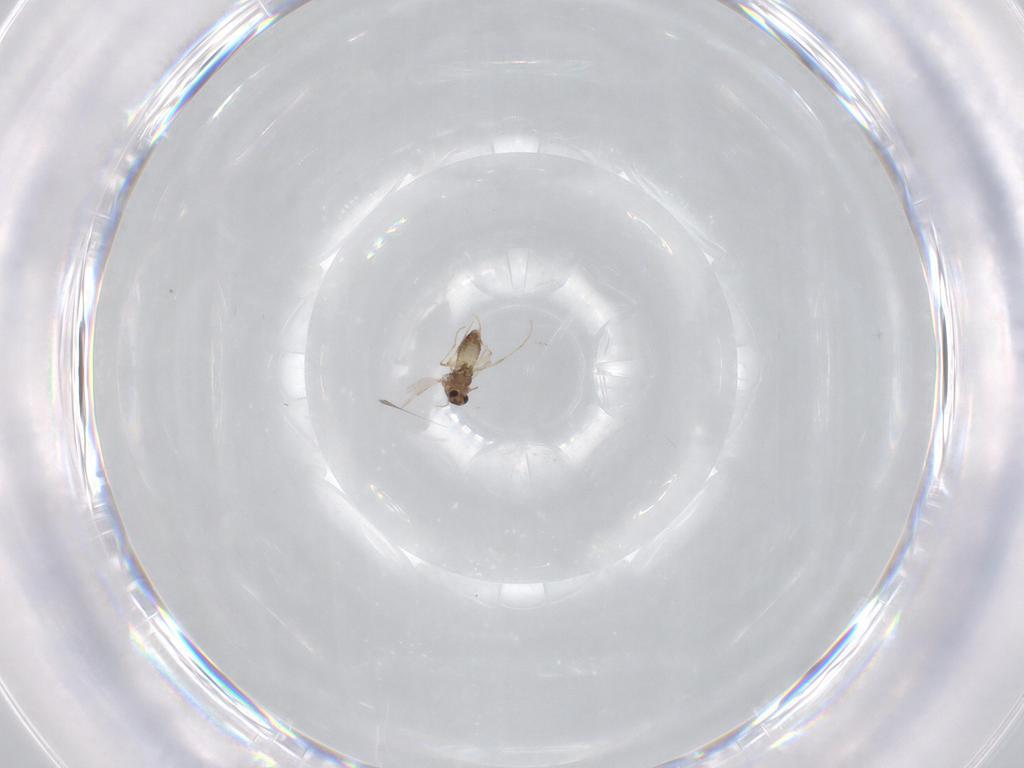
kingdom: Animalia
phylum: Arthropoda
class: Insecta
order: Diptera
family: Chironomidae
